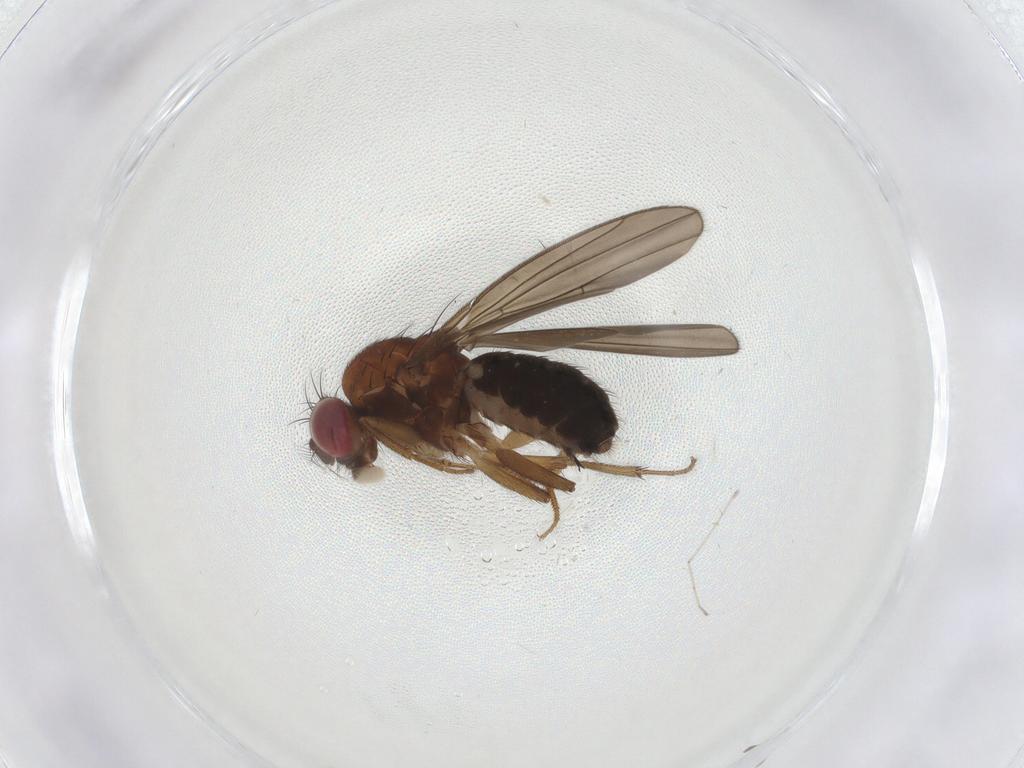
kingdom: Animalia
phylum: Arthropoda
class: Insecta
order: Diptera
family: Drosophilidae
